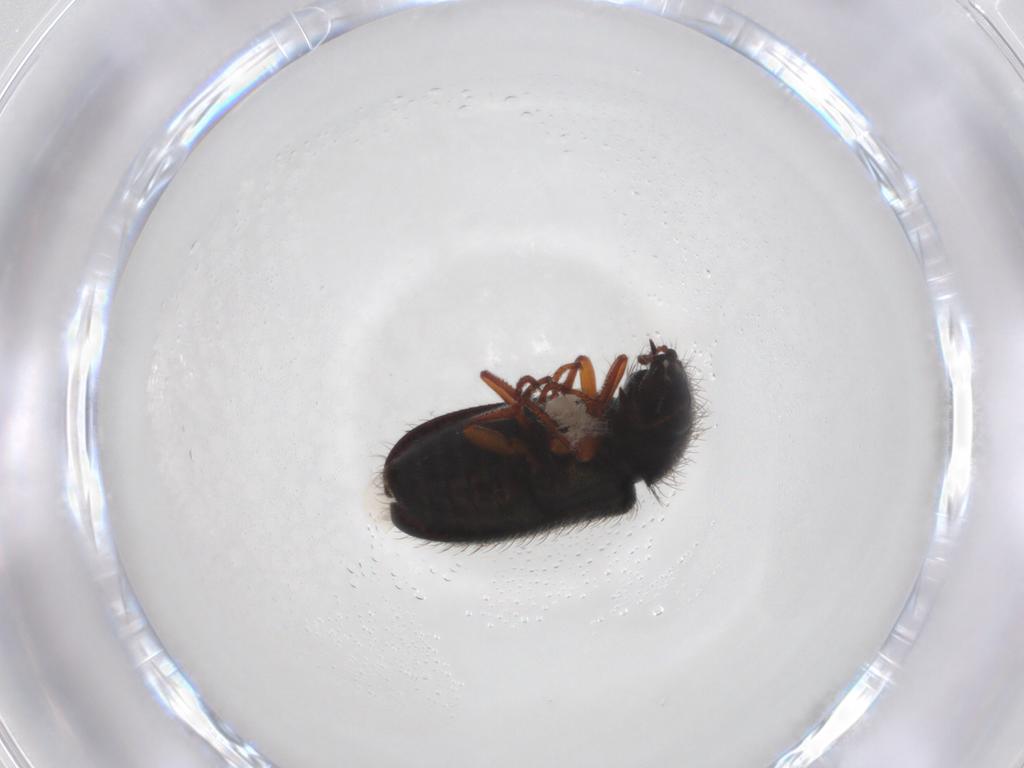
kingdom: Animalia
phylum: Arthropoda
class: Insecta
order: Coleoptera
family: Melyridae
